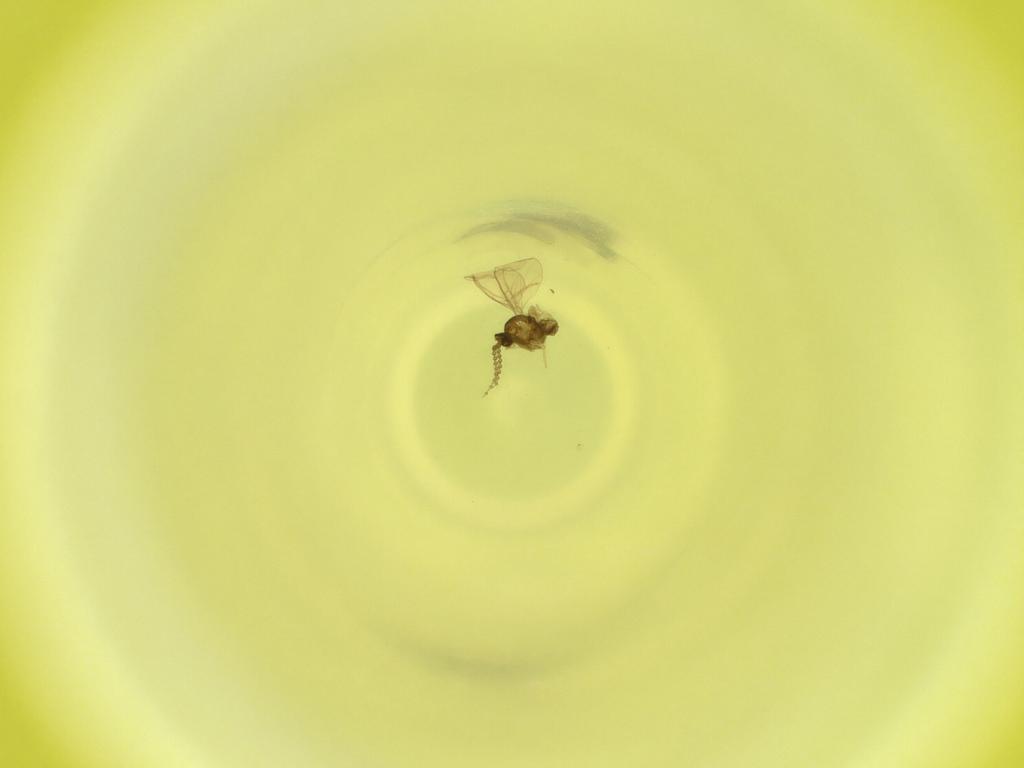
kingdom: Animalia
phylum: Arthropoda
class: Insecta
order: Diptera
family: Cecidomyiidae
